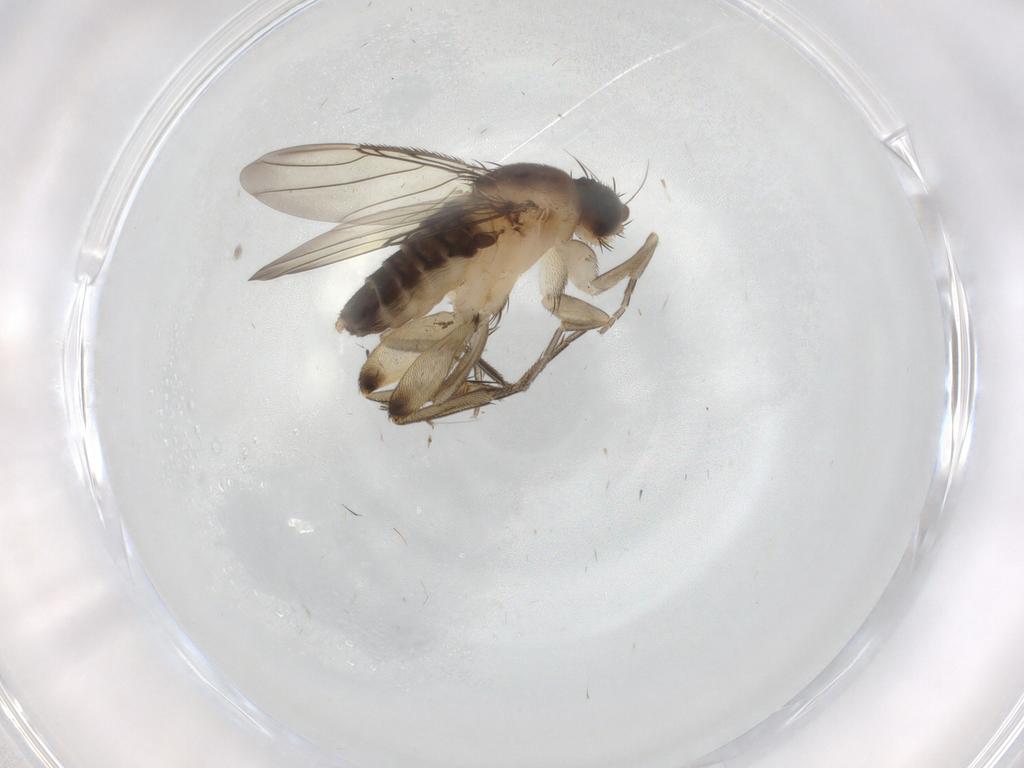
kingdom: Animalia
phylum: Arthropoda
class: Insecta
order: Diptera
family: Phoridae
